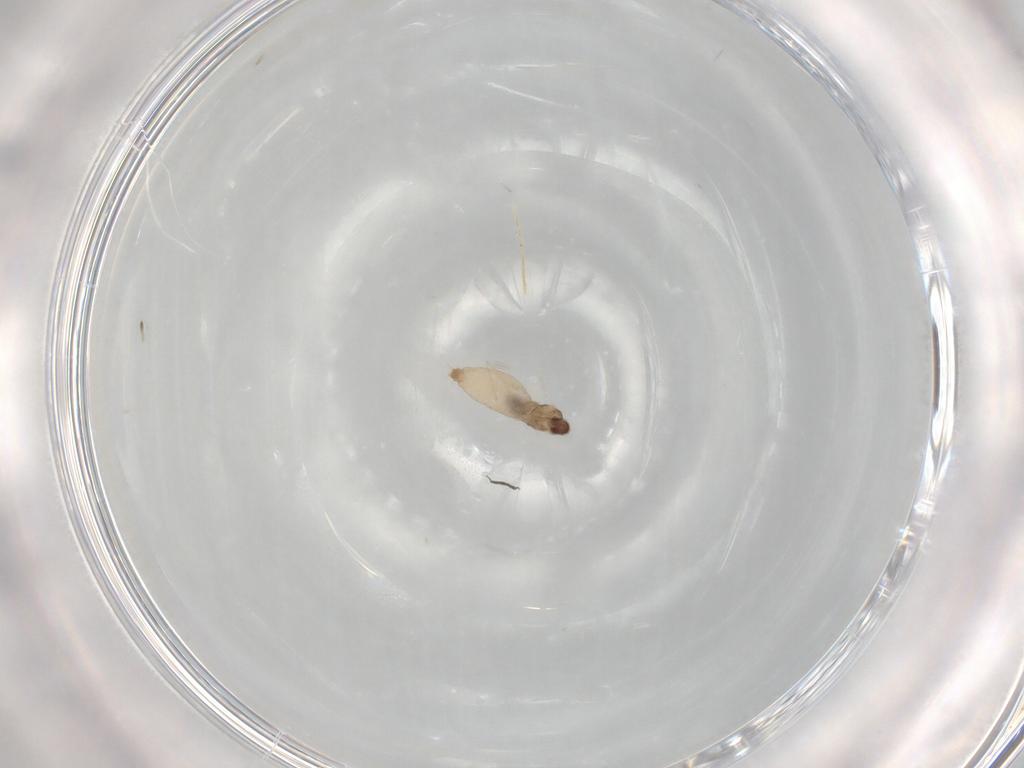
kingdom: Animalia
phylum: Arthropoda
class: Insecta
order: Diptera
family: Cecidomyiidae
